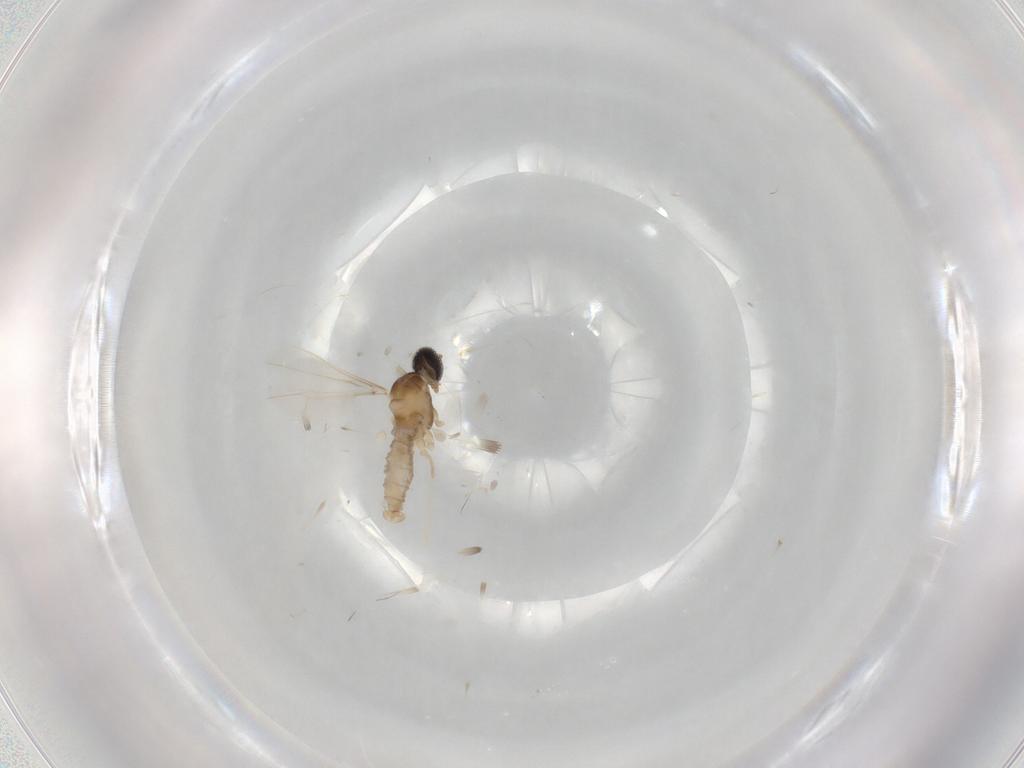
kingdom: Animalia
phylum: Arthropoda
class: Insecta
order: Diptera
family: Cecidomyiidae
